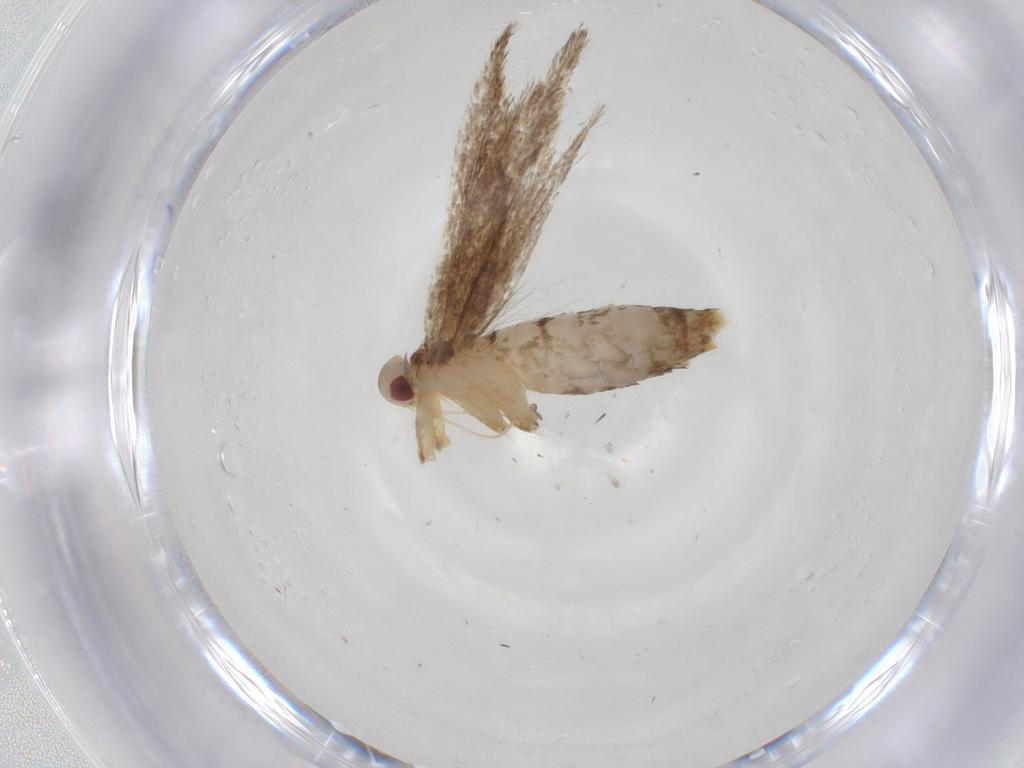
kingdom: Animalia
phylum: Arthropoda
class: Insecta
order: Lepidoptera
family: Cosmopterigidae
